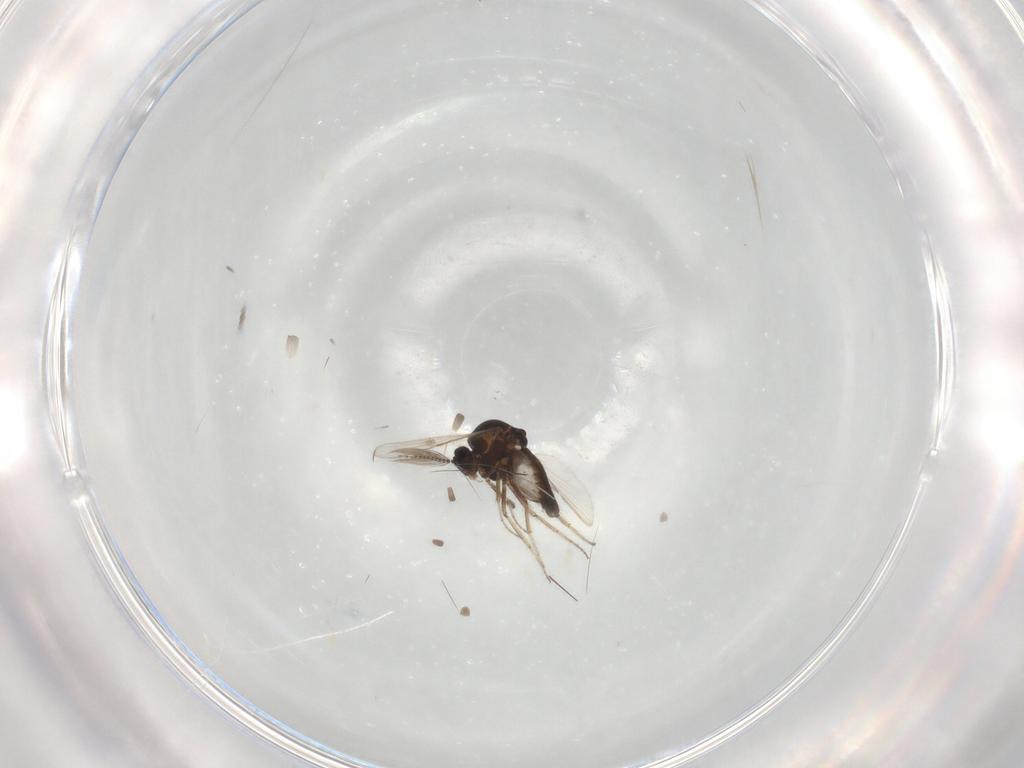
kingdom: Animalia
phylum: Arthropoda
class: Insecta
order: Diptera
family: Ceratopogonidae
